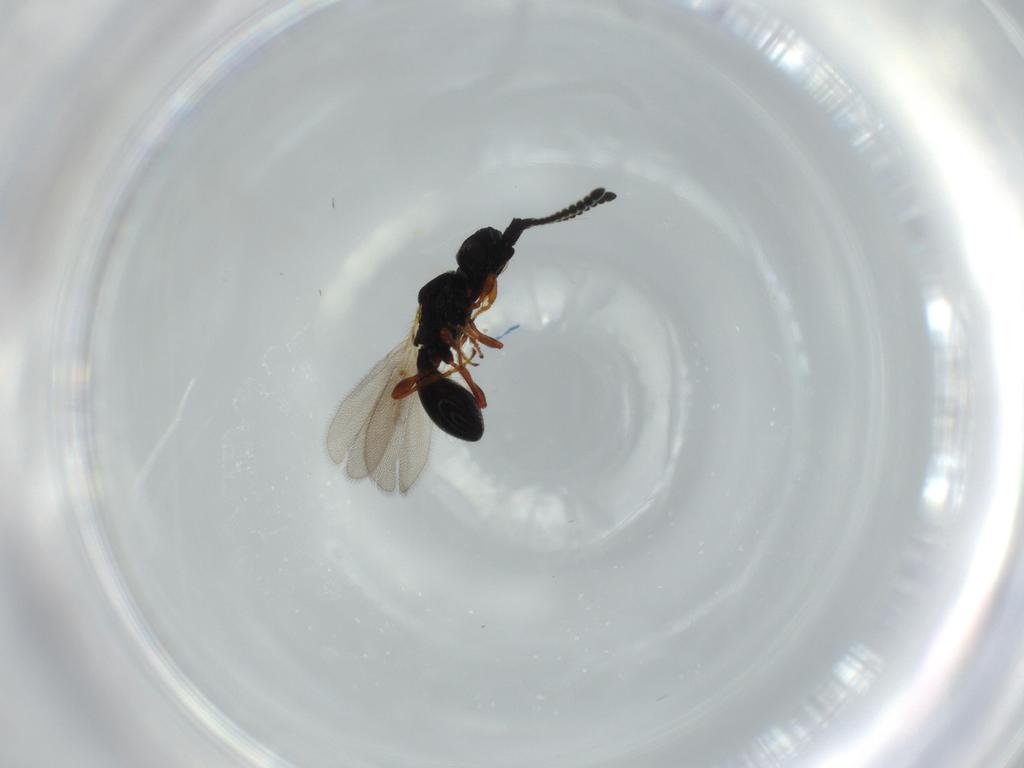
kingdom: Animalia
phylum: Arthropoda
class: Insecta
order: Hymenoptera
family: Diapriidae
